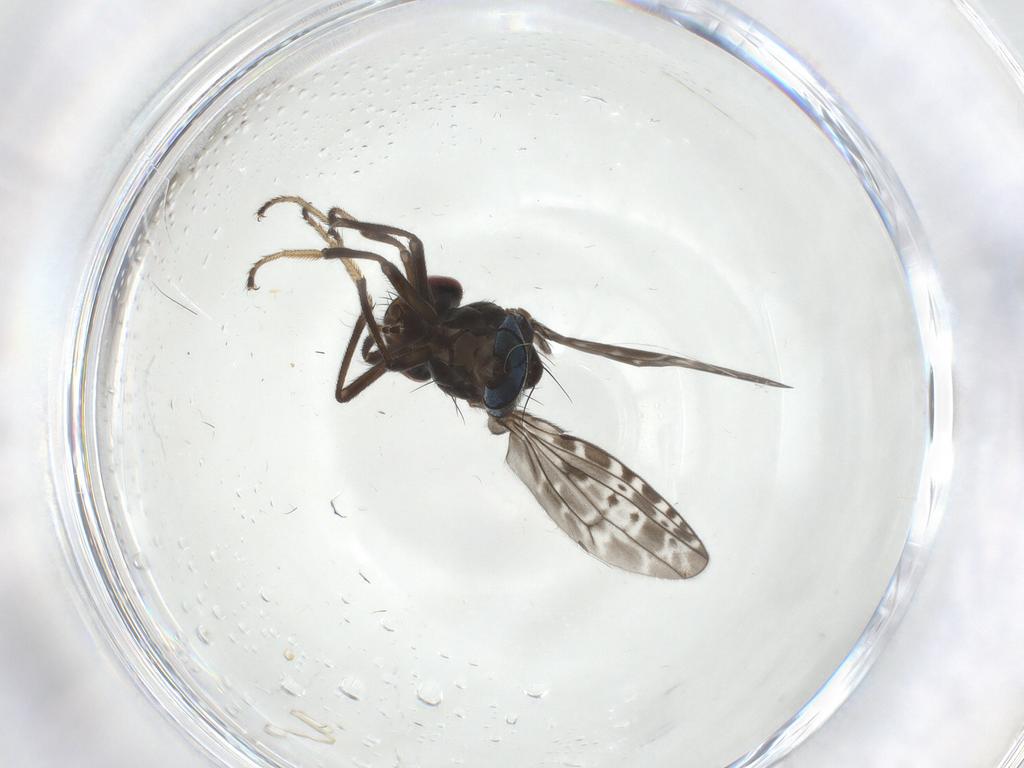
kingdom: Animalia
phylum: Arthropoda
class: Insecta
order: Diptera
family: Ephydridae
